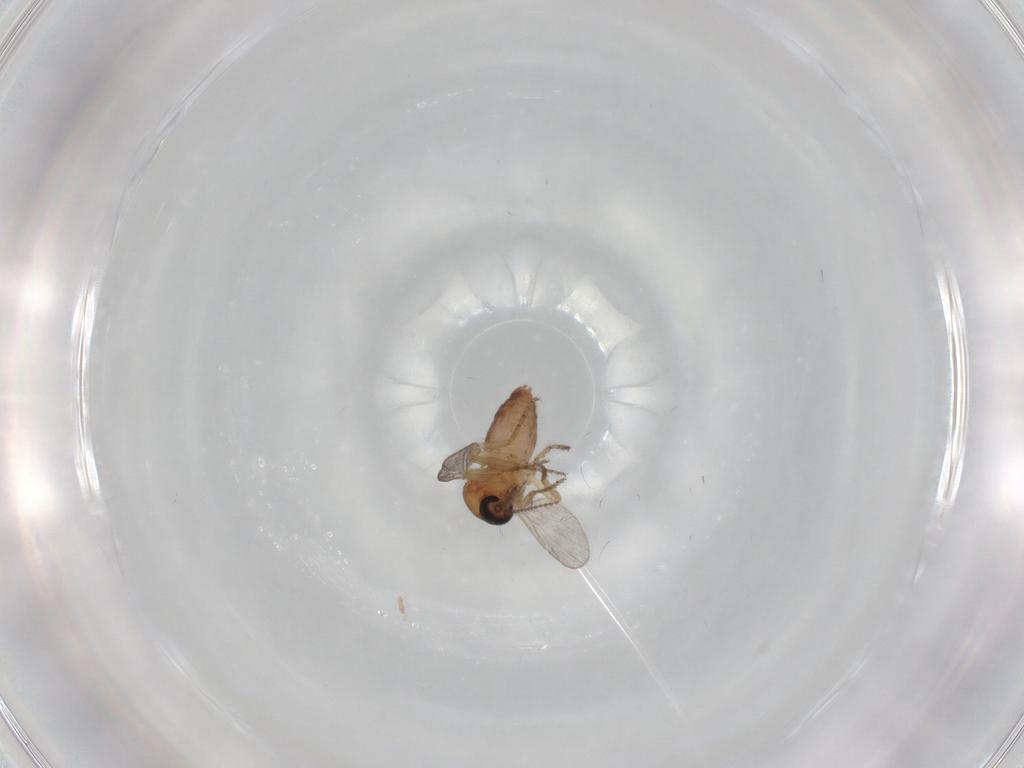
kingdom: Animalia
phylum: Arthropoda
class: Insecta
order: Diptera
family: Ceratopogonidae
